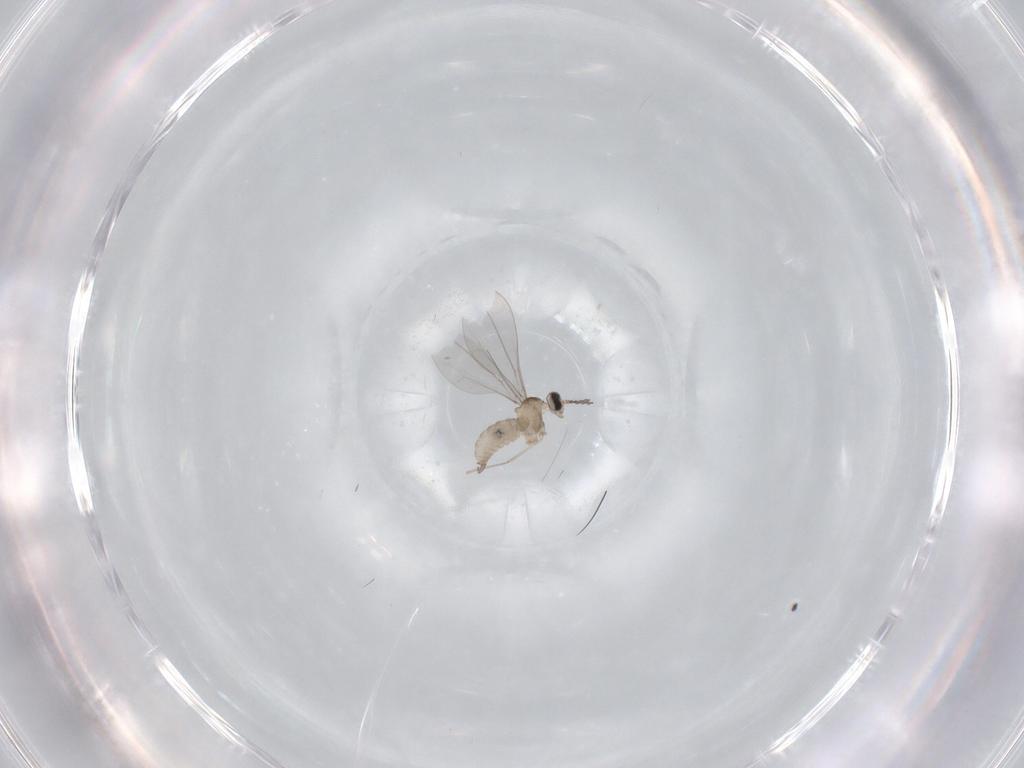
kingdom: Animalia
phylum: Arthropoda
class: Insecta
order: Diptera
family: Cecidomyiidae
